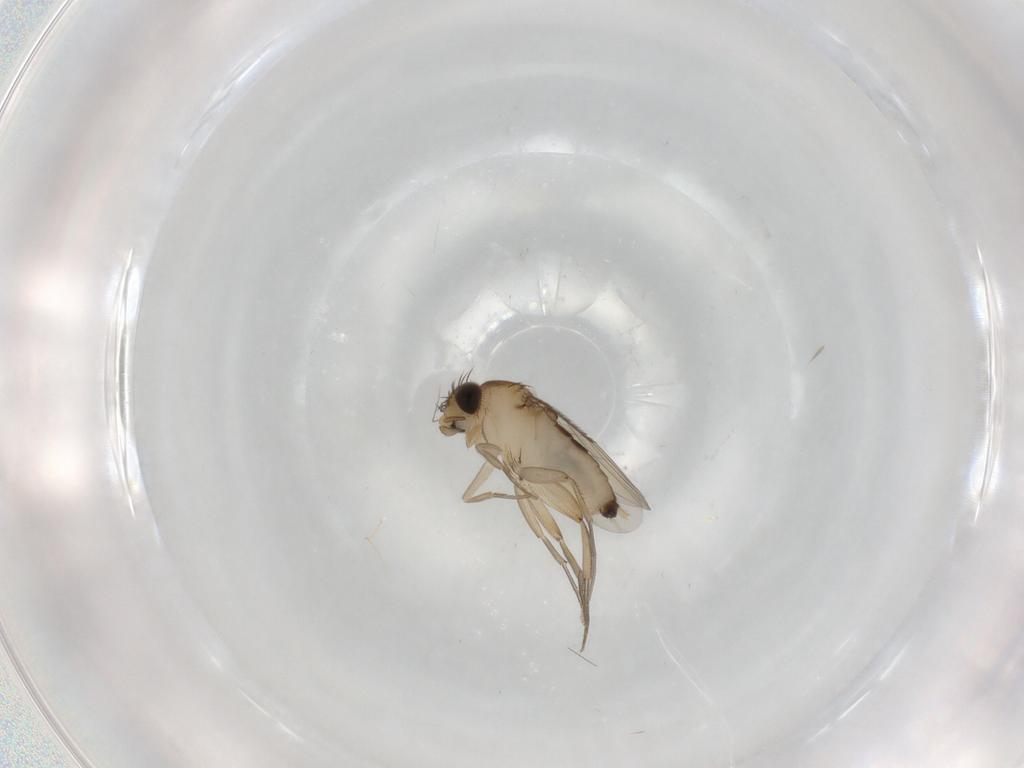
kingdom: Animalia
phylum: Arthropoda
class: Insecta
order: Diptera
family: Phoridae
